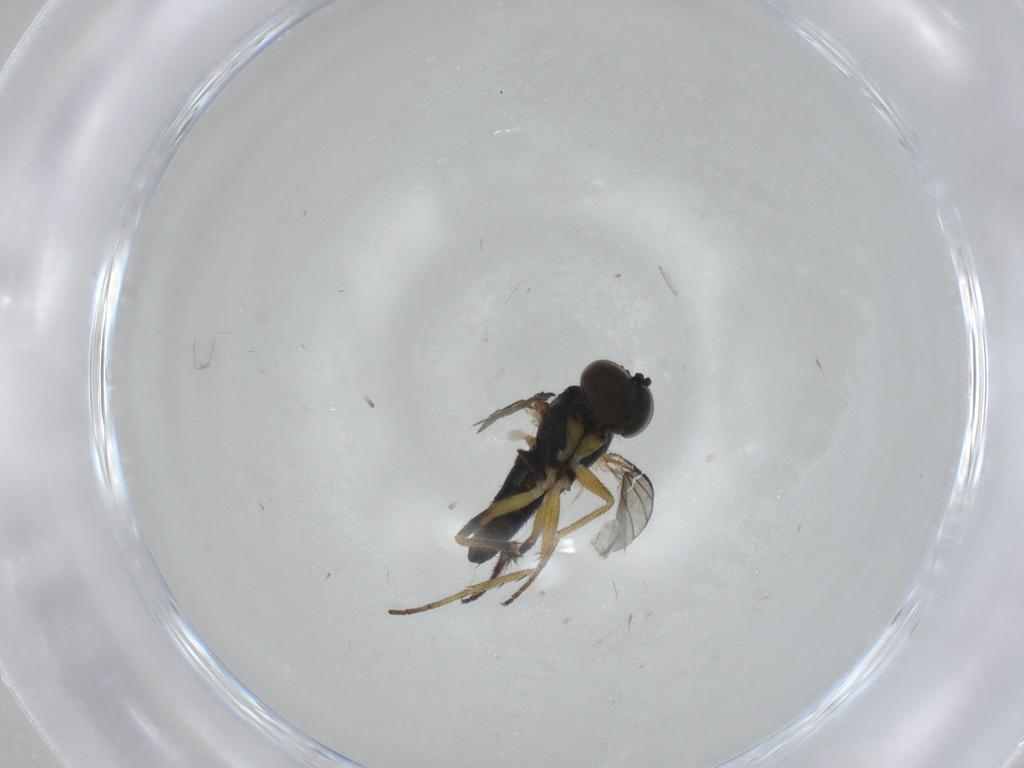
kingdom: Animalia
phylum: Arthropoda
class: Insecta
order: Diptera
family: Dolichopodidae
